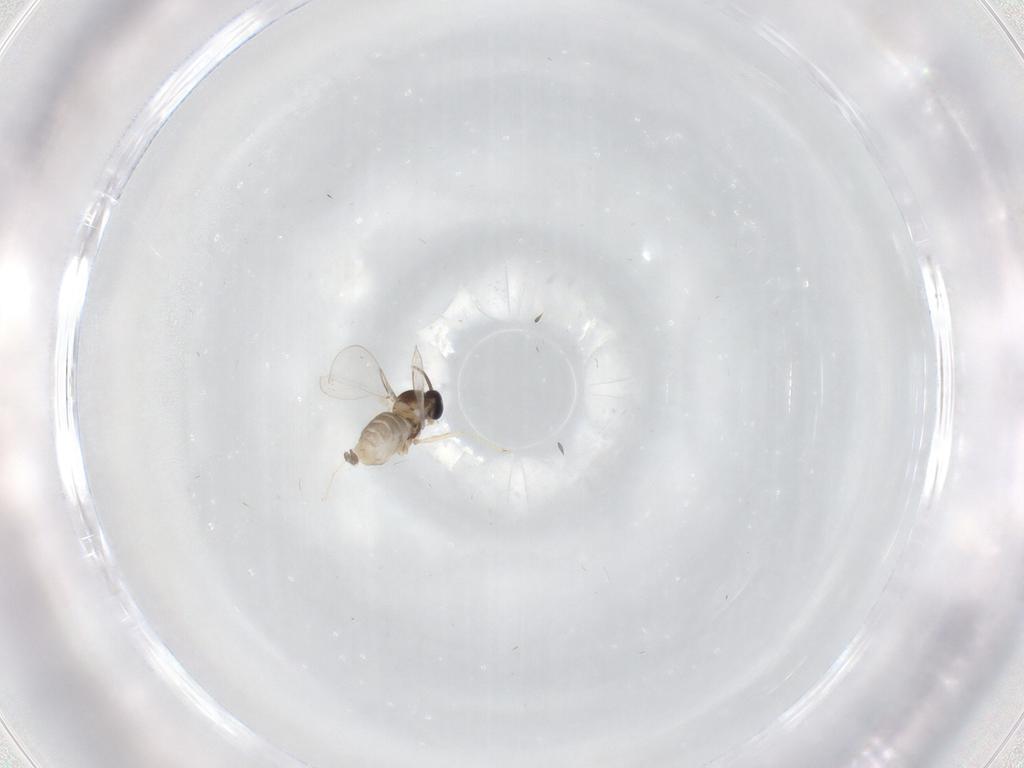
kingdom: Animalia
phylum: Arthropoda
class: Insecta
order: Diptera
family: Cecidomyiidae
